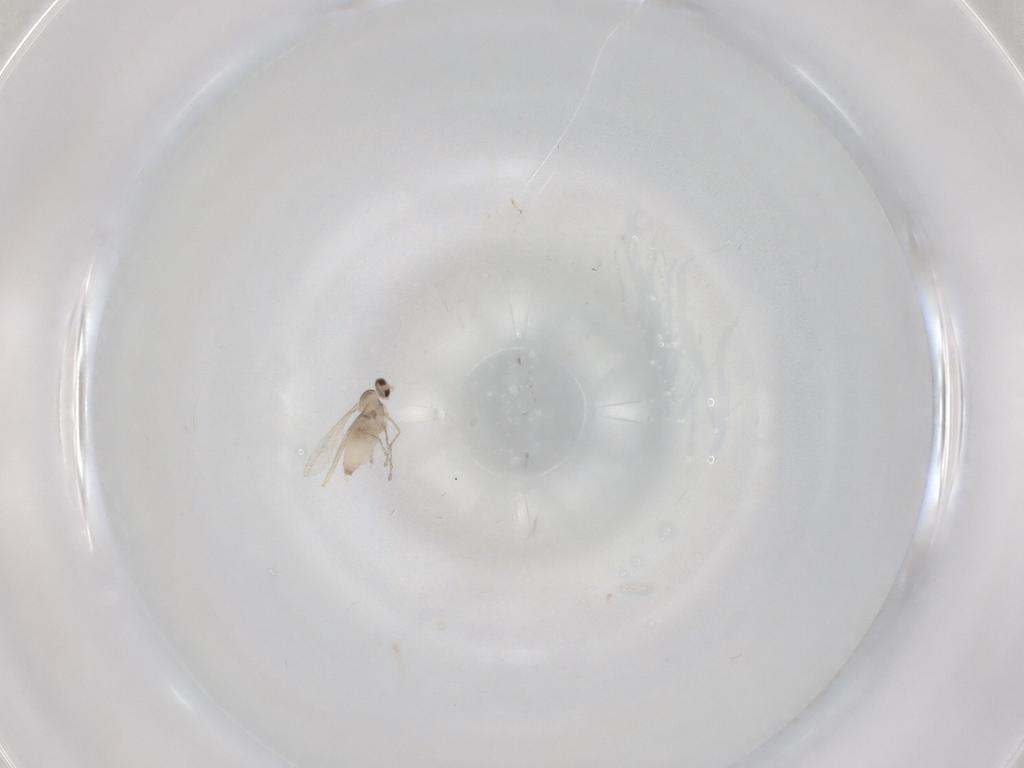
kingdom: Animalia
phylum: Arthropoda
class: Insecta
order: Diptera
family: Cecidomyiidae
